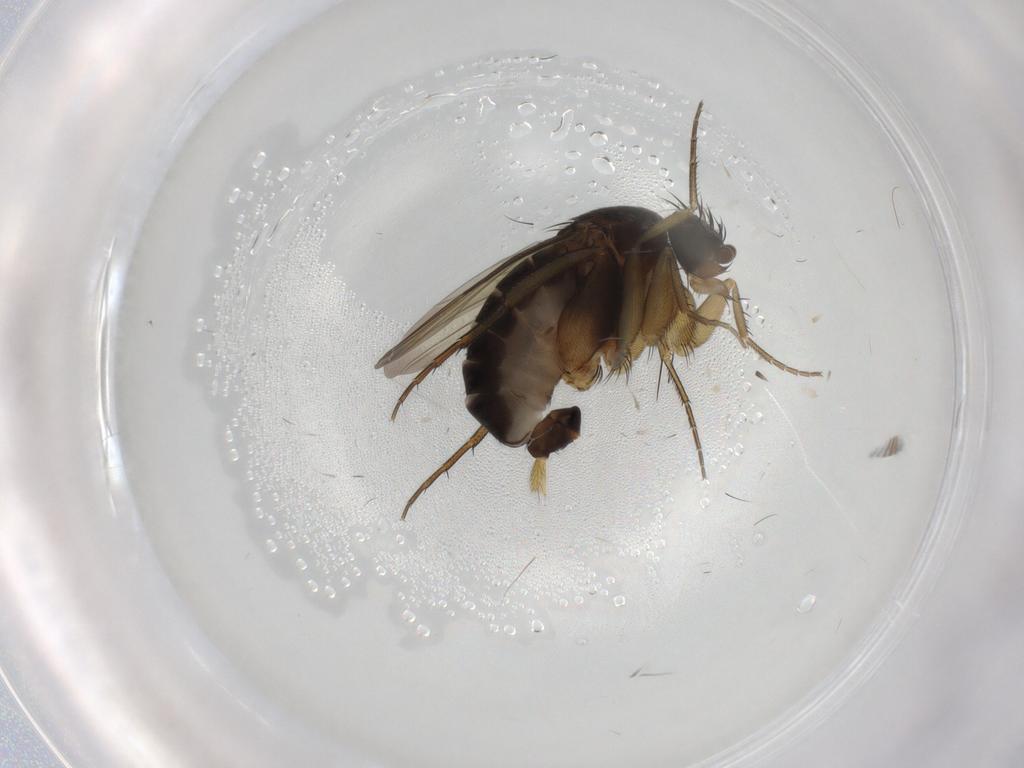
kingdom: Animalia
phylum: Arthropoda
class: Insecta
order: Diptera
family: Phoridae
